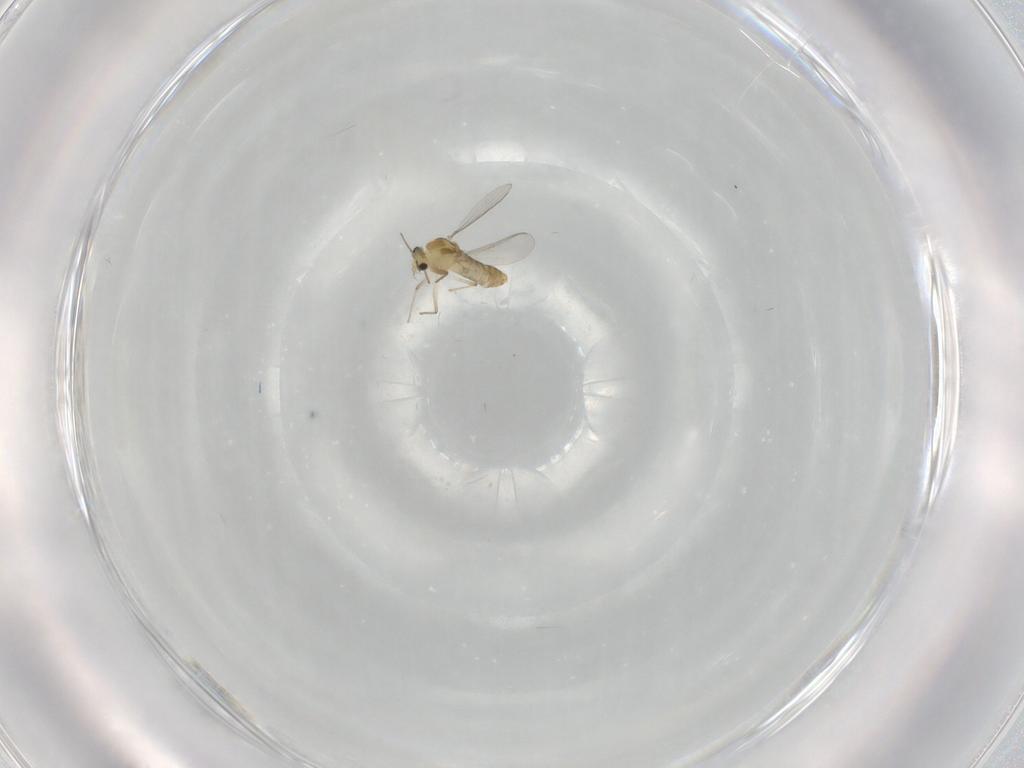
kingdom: Animalia
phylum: Arthropoda
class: Insecta
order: Diptera
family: Chironomidae
